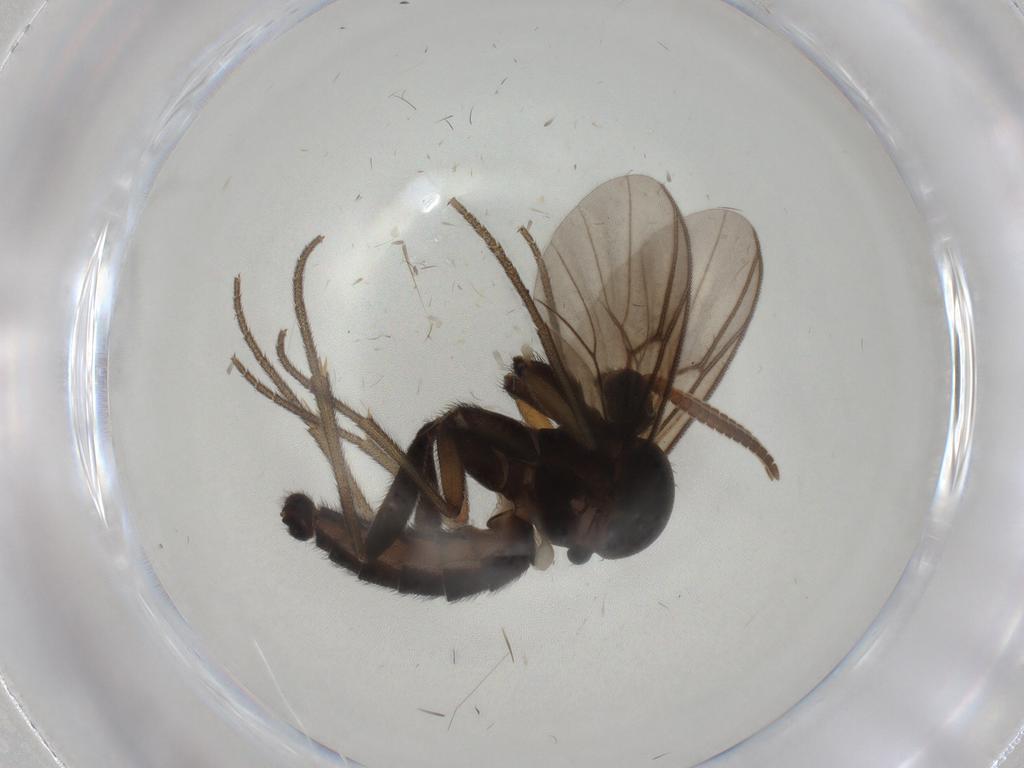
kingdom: Animalia
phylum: Arthropoda
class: Insecta
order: Diptera
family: Mycetophilidae
